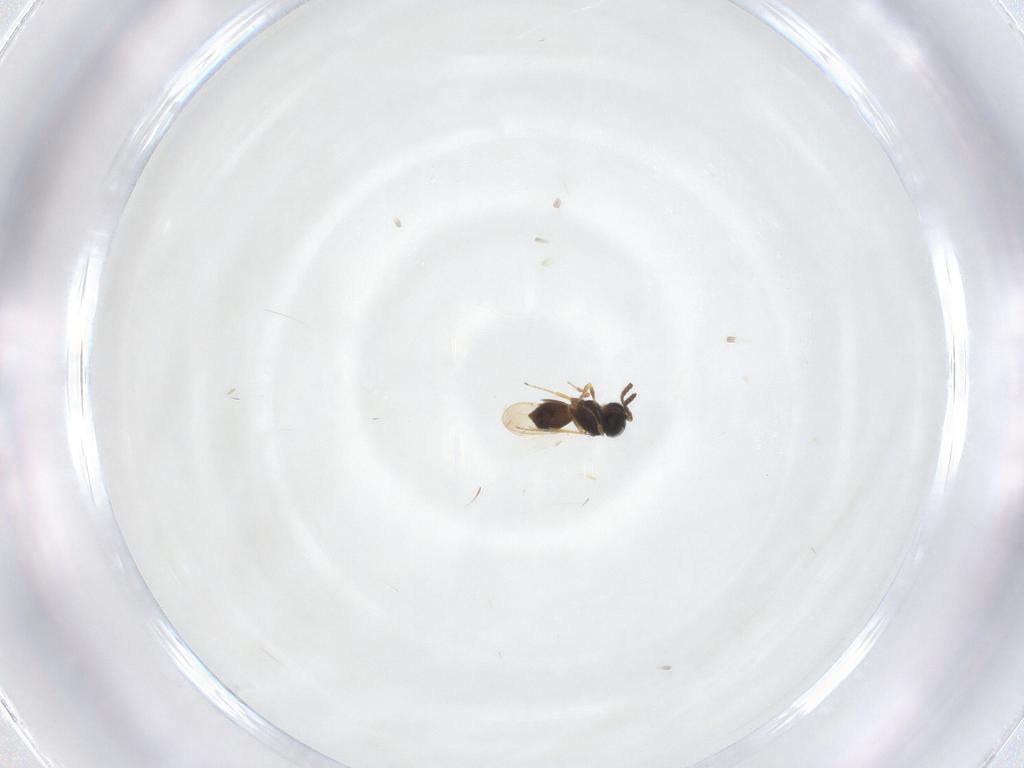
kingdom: Animalia
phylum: Arthropoda
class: Insecta
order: Hymenoptera
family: Scelionidae
